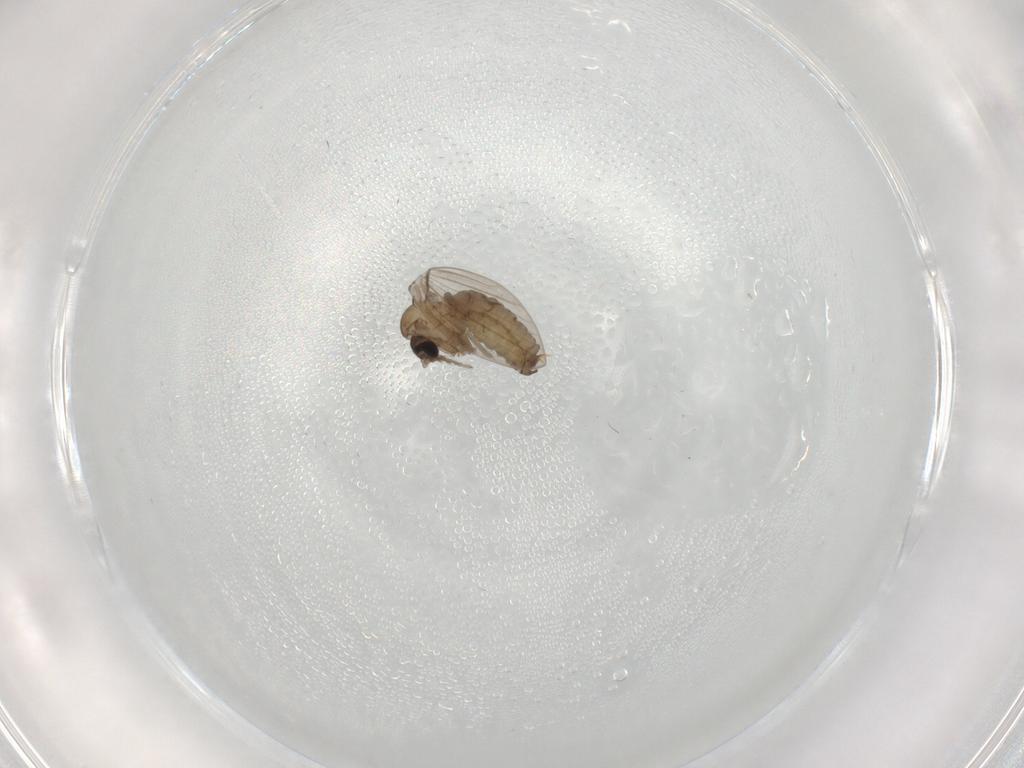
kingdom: Animalia
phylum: Arthropoda
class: Insecta
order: Diptera
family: Psychodidae
